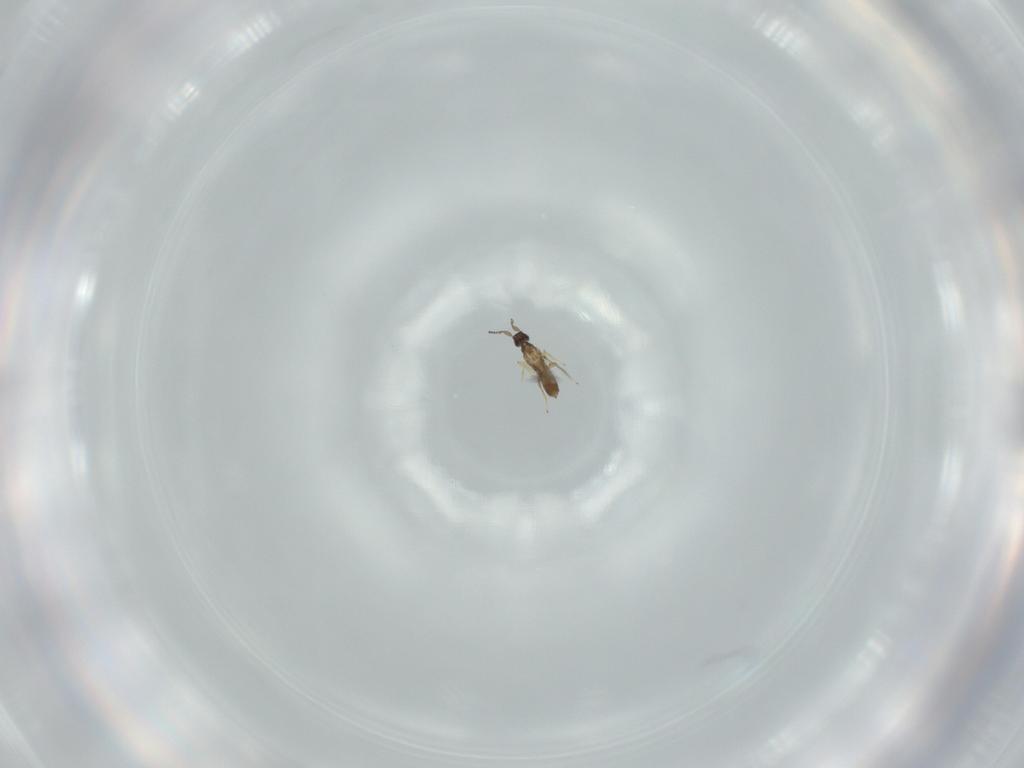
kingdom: Animalia
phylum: Arthropoda
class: Insecta
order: Hymenoptera
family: Mymaridae
